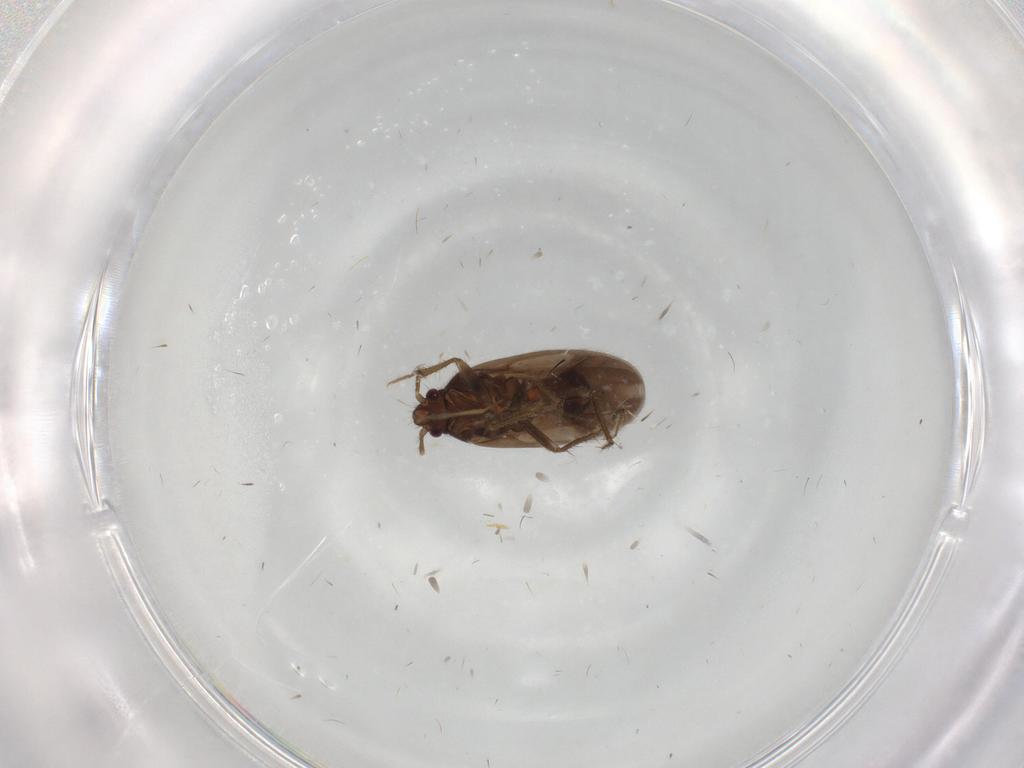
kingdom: Animalia
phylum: Arthropoda
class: Insecta
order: Hemiptera
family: Ceratocombidae
